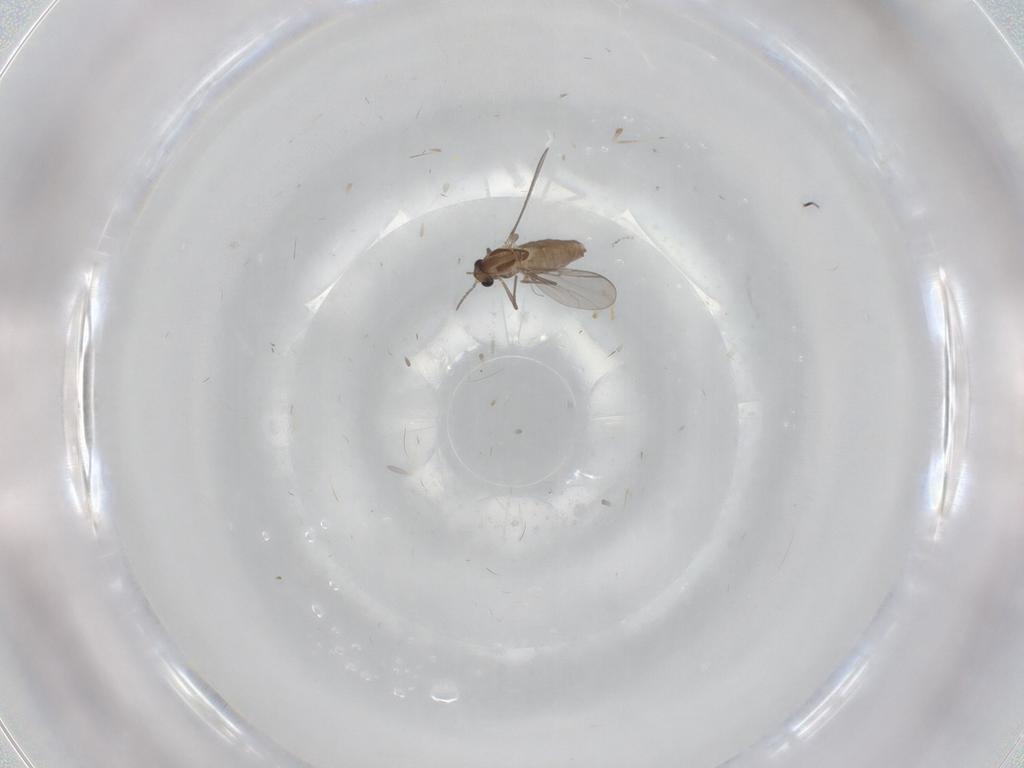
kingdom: Animalia
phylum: Arthropoda
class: Insecta
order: Diptera
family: Chironomidae
